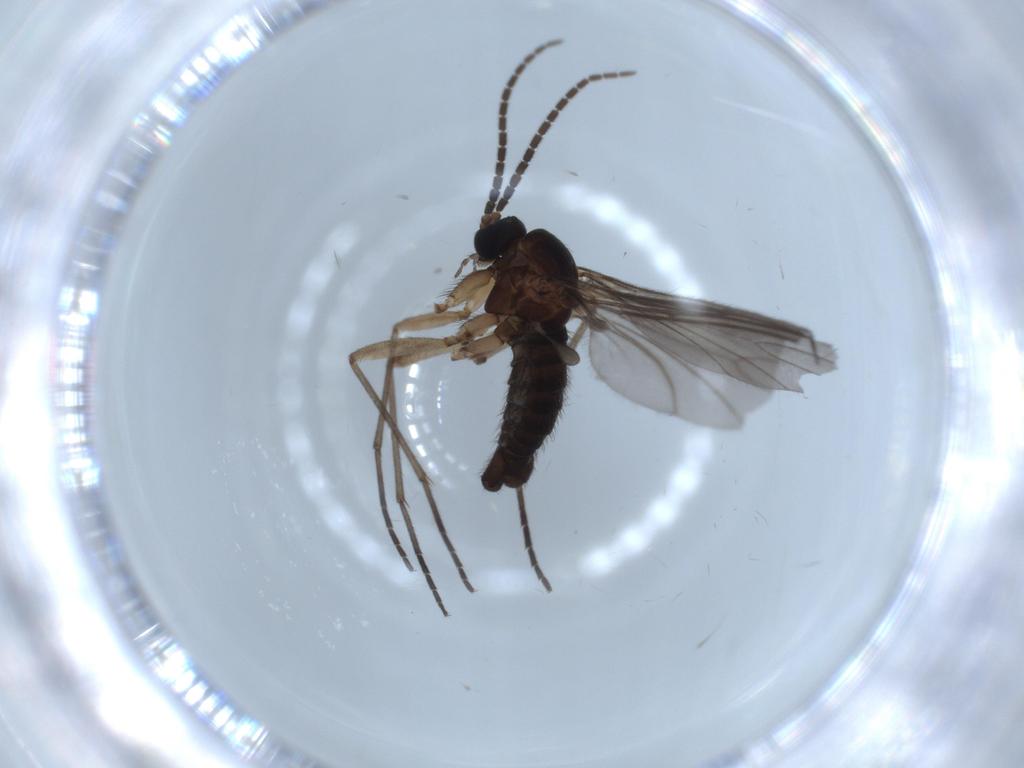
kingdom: Animalia
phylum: Arthropoda
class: Insecta
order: Diptera
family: Sciaridae
